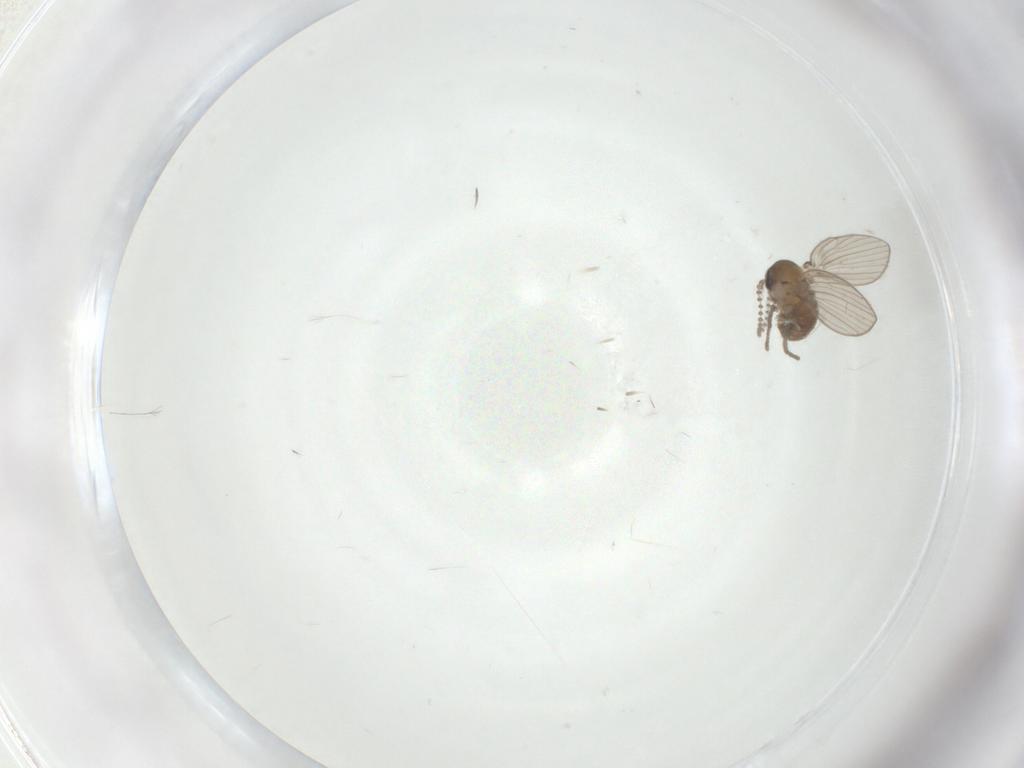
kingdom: Animalia
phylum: Arthropoda
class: Insecta
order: Diptera
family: Psychodidae
